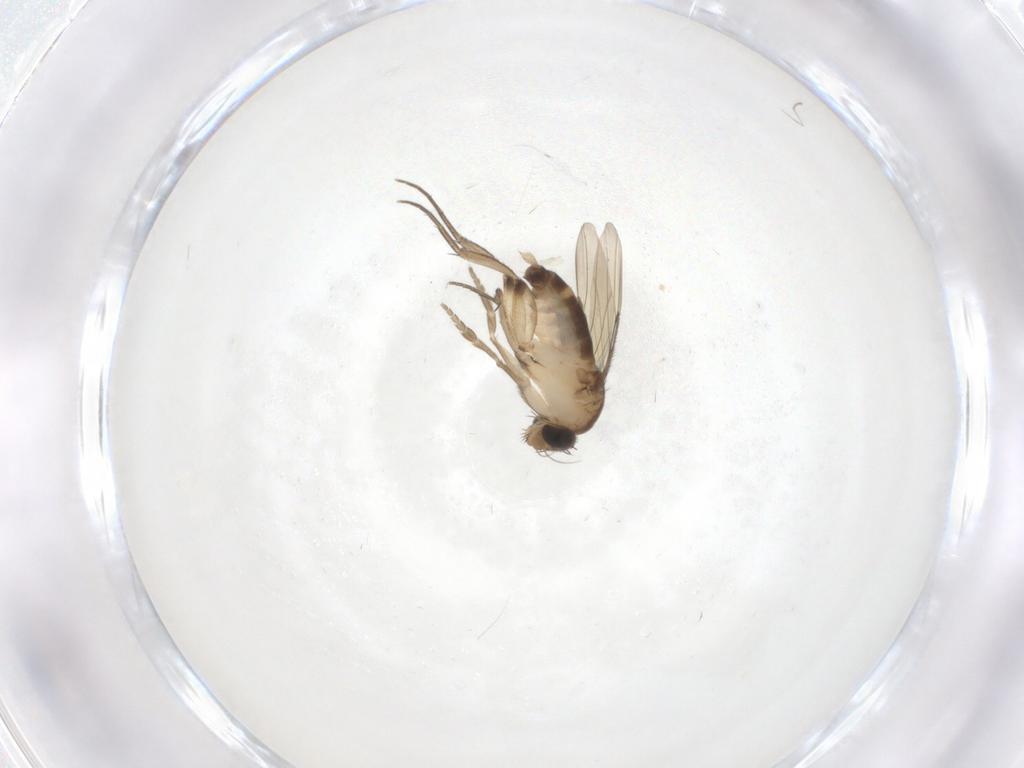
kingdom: Animalia
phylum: Arthropoda
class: Insecta
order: Diptera
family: Phoridae
